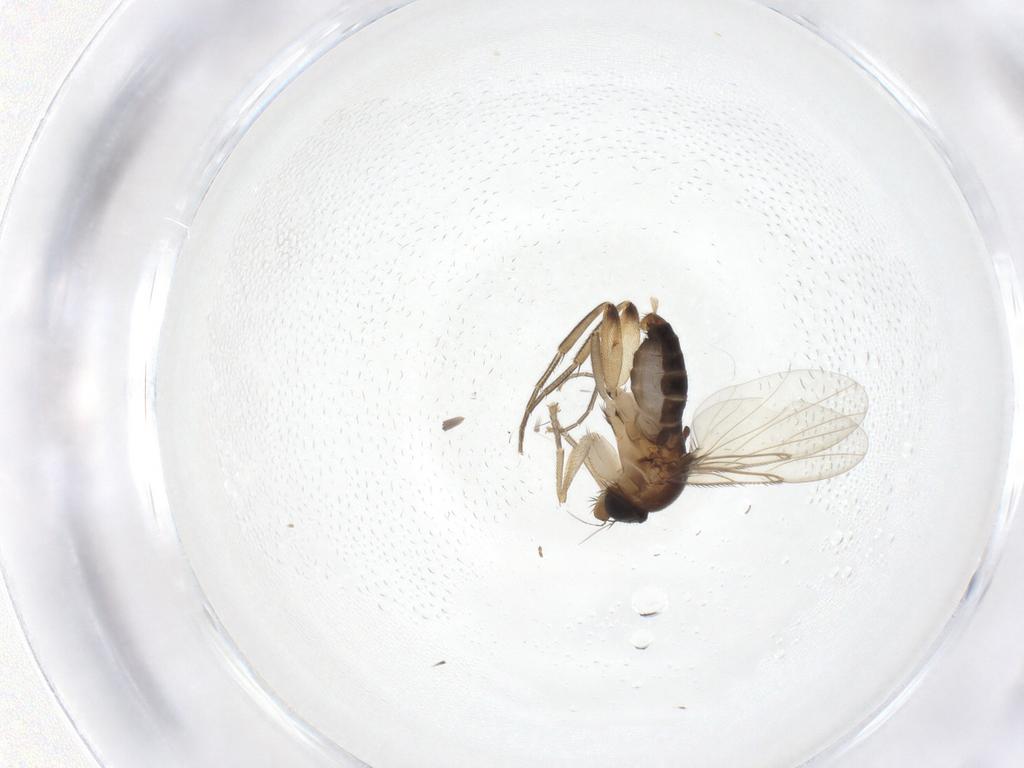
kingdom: Animalia
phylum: Arthropoda
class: Insecta
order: Diptera
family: Phoridae
